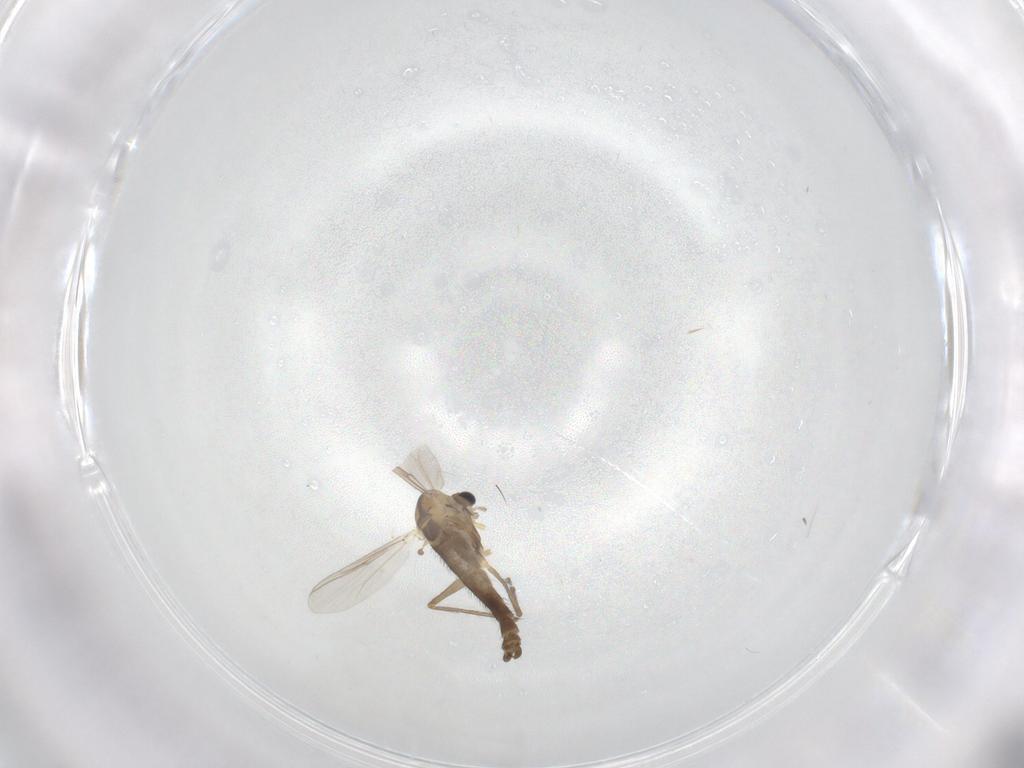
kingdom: Animalia
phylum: Arthropoda
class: Insecta
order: Diptera
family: Chironomidae
